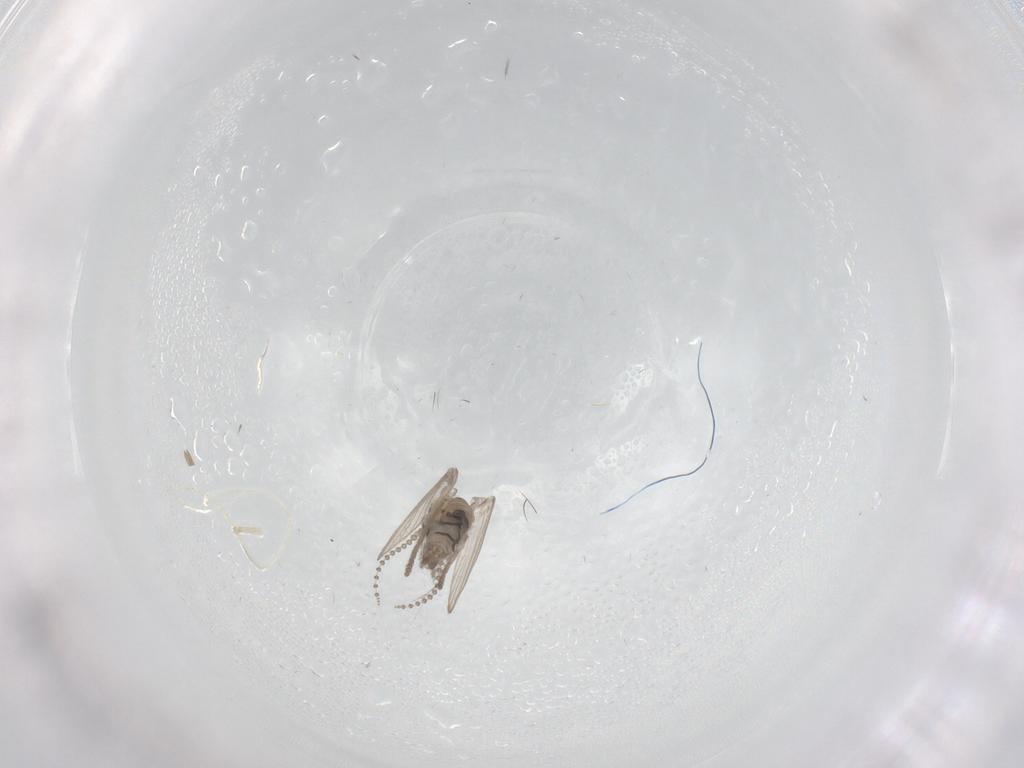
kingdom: Animalia
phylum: Arthropoda
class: Insecta
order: Diptera
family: Psychodidae
